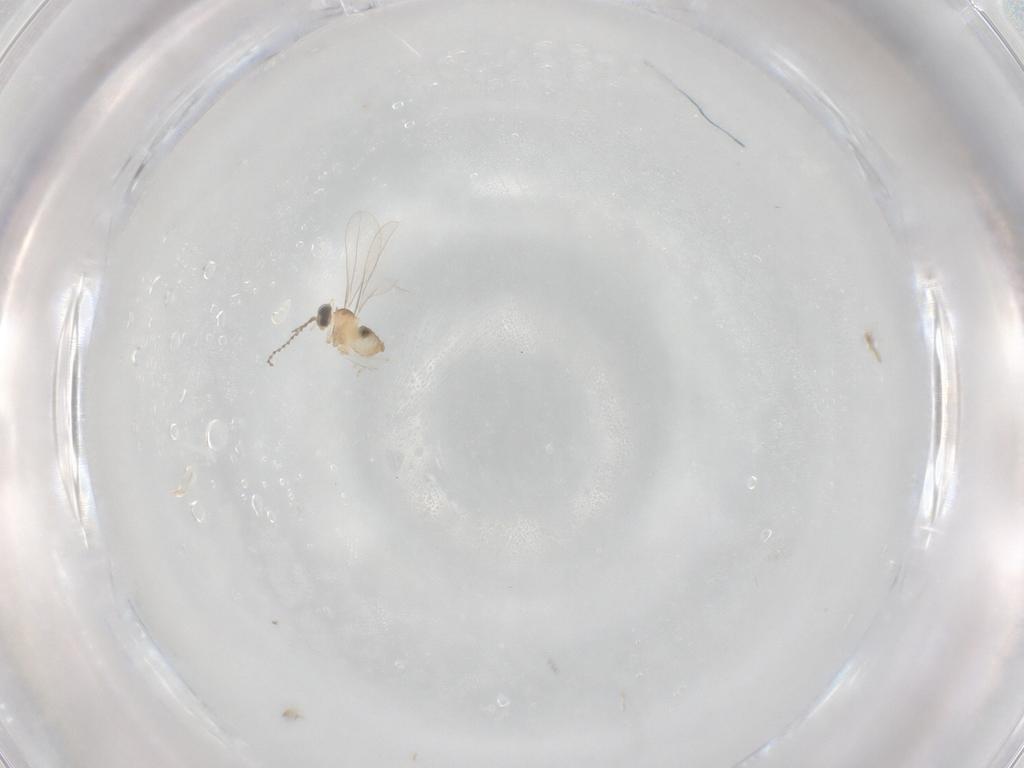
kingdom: Animalia
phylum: Arthropoda
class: Insecta
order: Diptera
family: Cecidomyiidae
